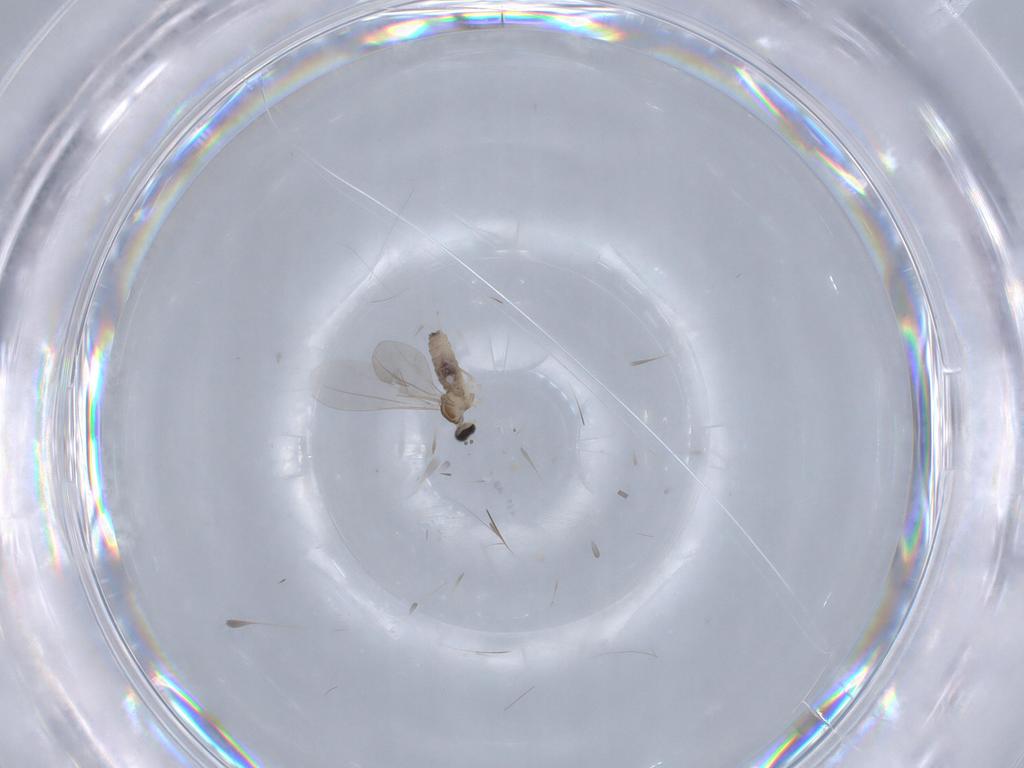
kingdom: Animalia
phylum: Arthropoda
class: Insecta
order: Diptera
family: Cecidomyiidae
